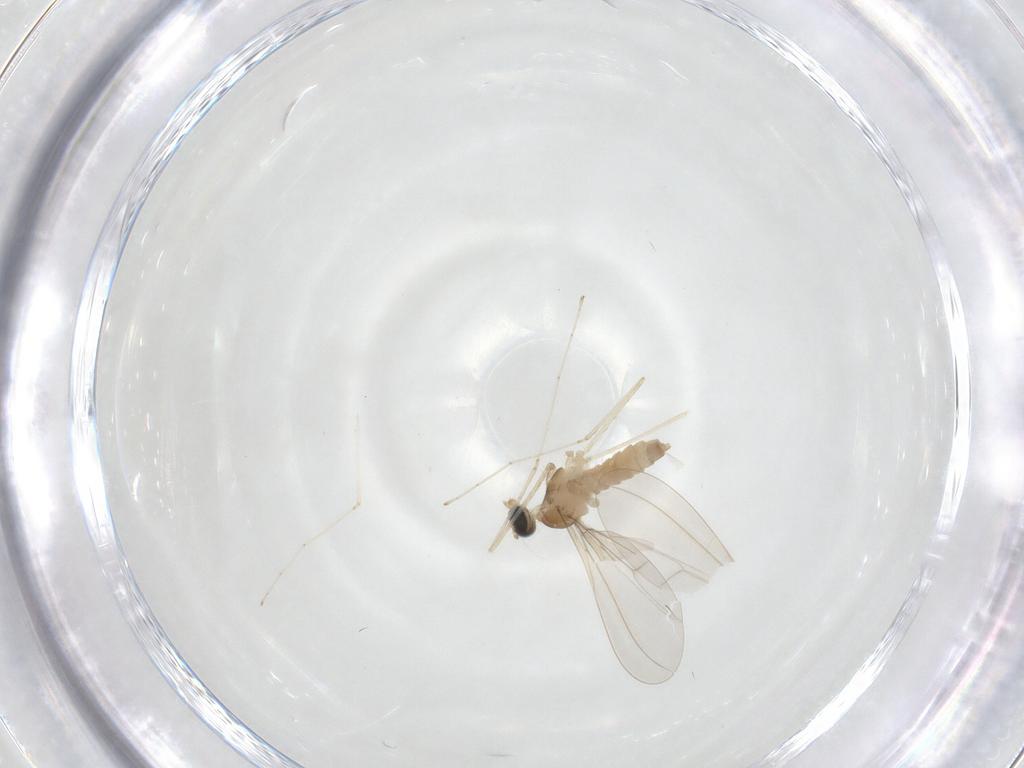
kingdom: Animalia
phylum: Arthropoda
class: Insecta
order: Diptera
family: Cecidomyiidae
